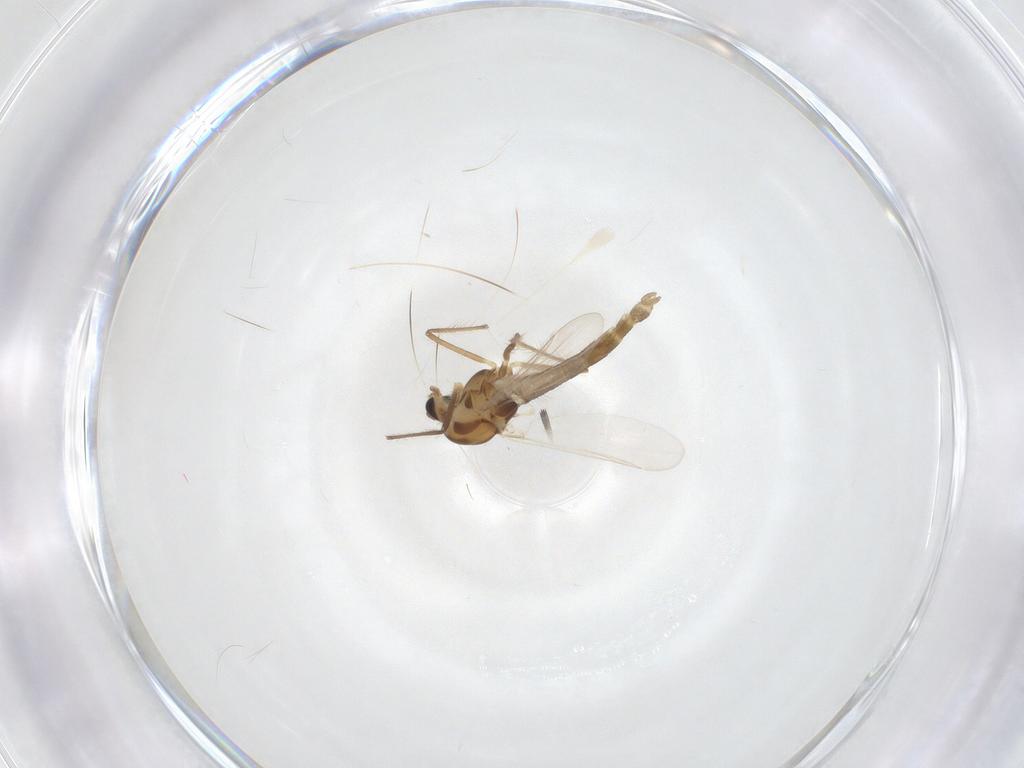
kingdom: Animalia
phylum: Arthropoda
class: Insecta
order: Diptera
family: Chironomidae
